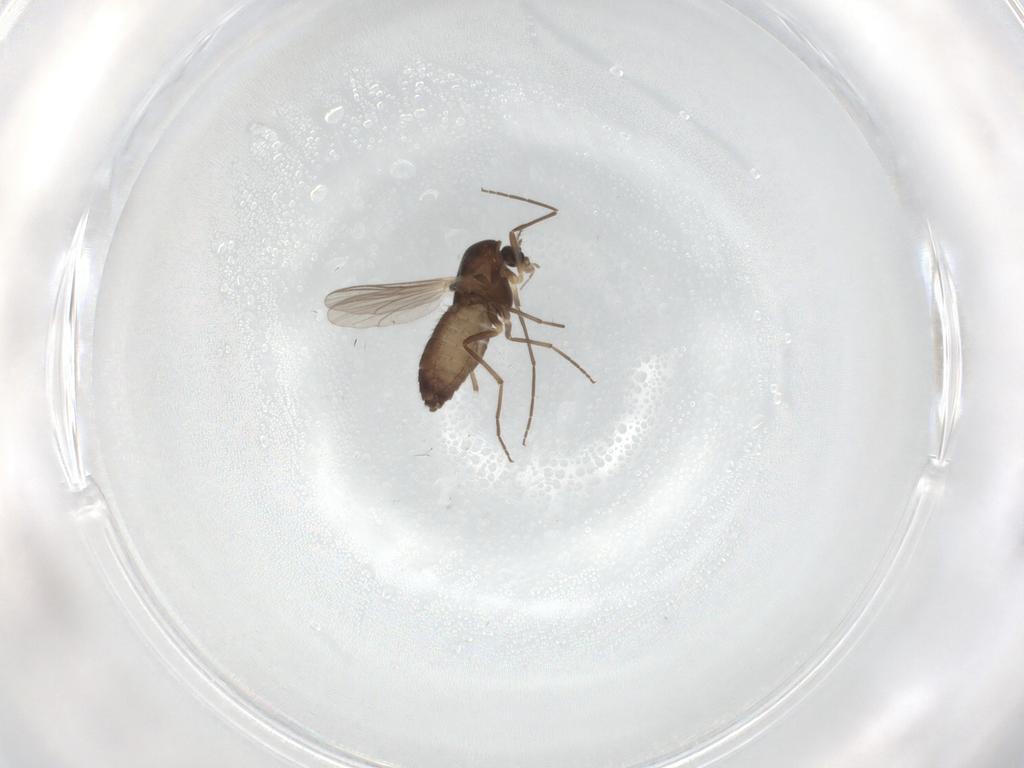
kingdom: Animalia
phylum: Arthropoda
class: Insecta
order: Diptera
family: Chironomidae
